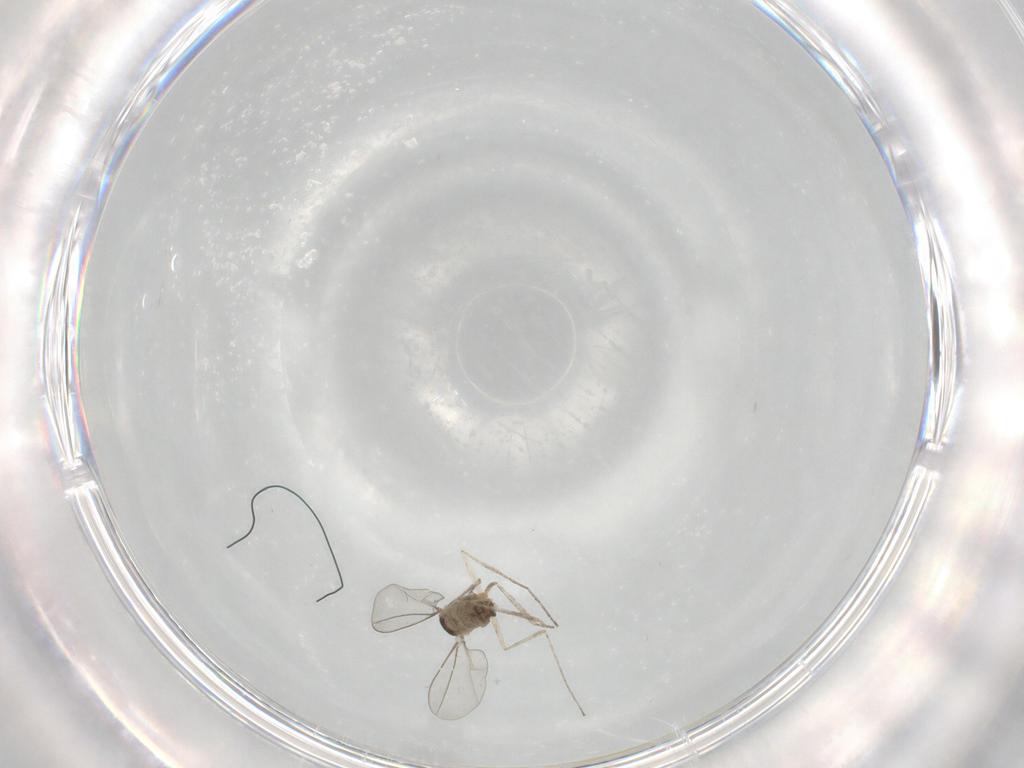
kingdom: Animalia
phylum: Arthropoda
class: Insecta
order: Diptera
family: Cecidomyiidae
